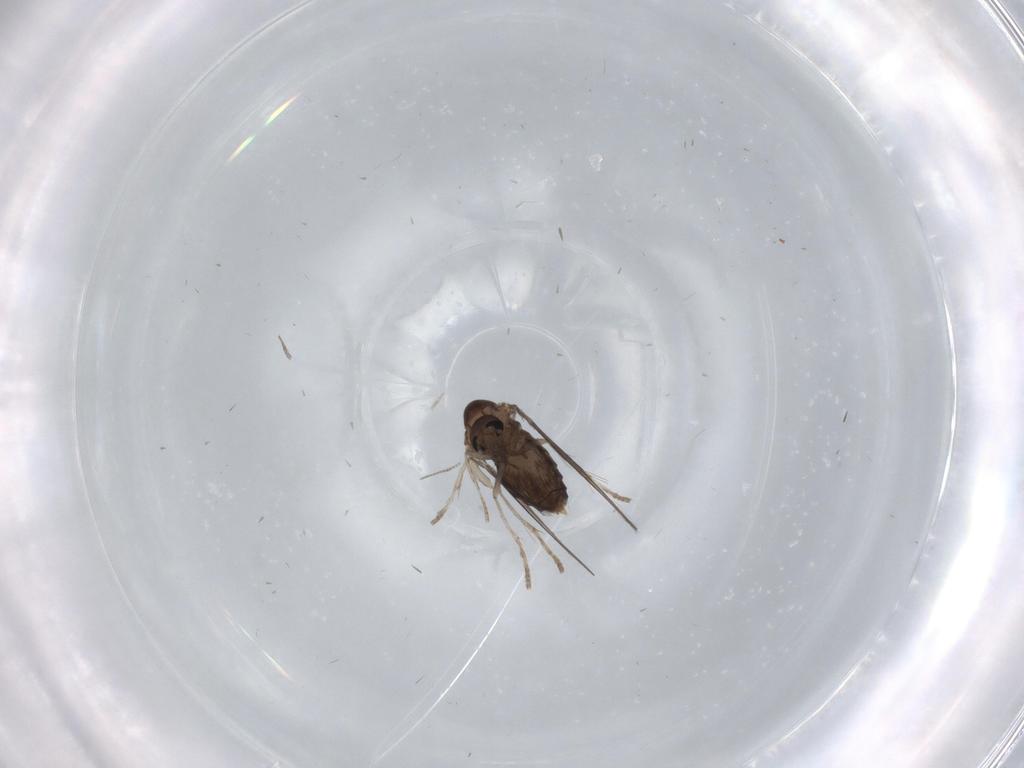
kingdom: Animalia
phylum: Arthropoda
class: Insecta
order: Diptera
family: Psychodidae
